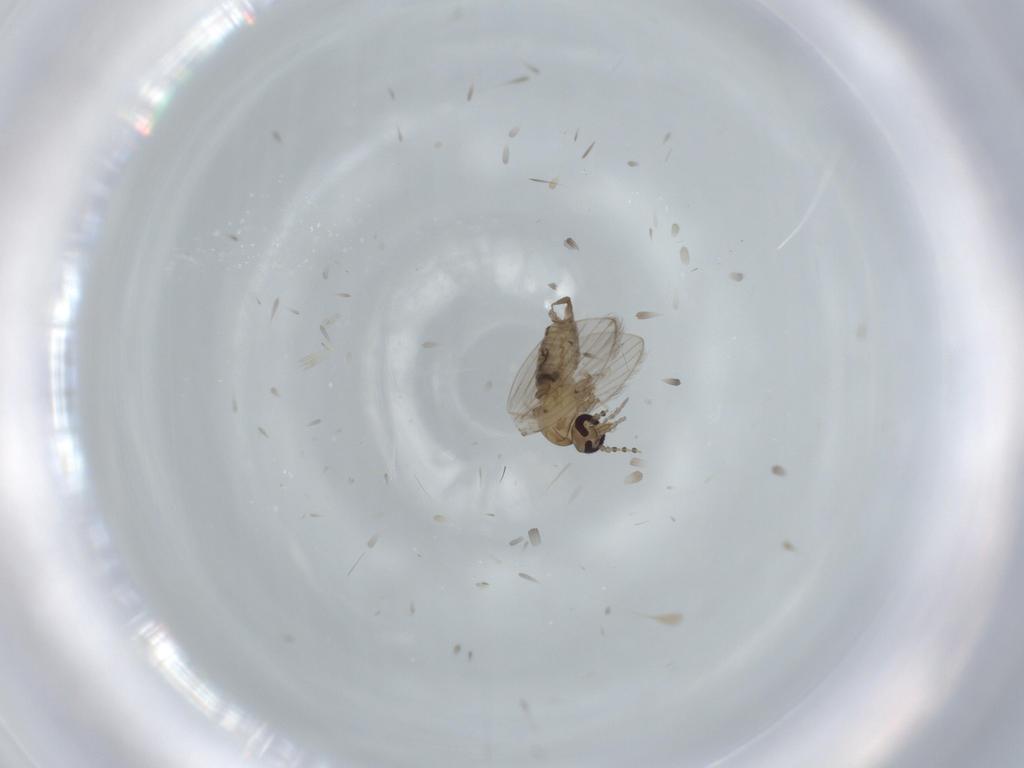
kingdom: Animalia
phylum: Arthropoda
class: Insecta
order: Diptera
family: Psychodidae
